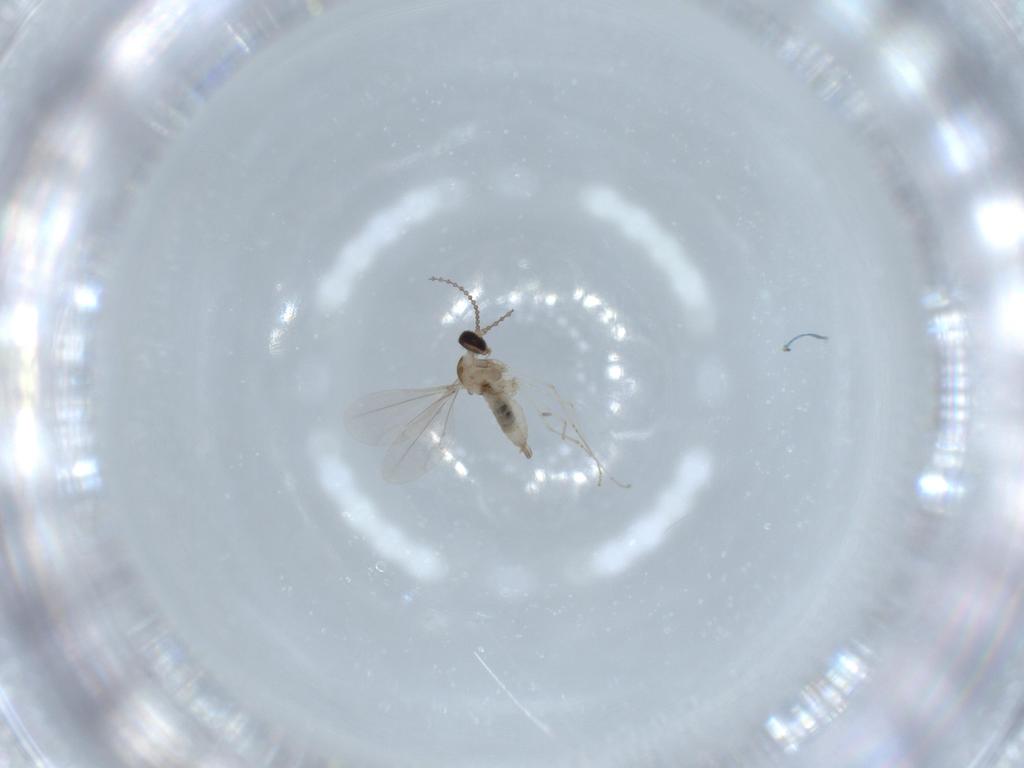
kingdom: Animalia
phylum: Arthropoda
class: Insecta
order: Diptera
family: Cecidomyiidae
